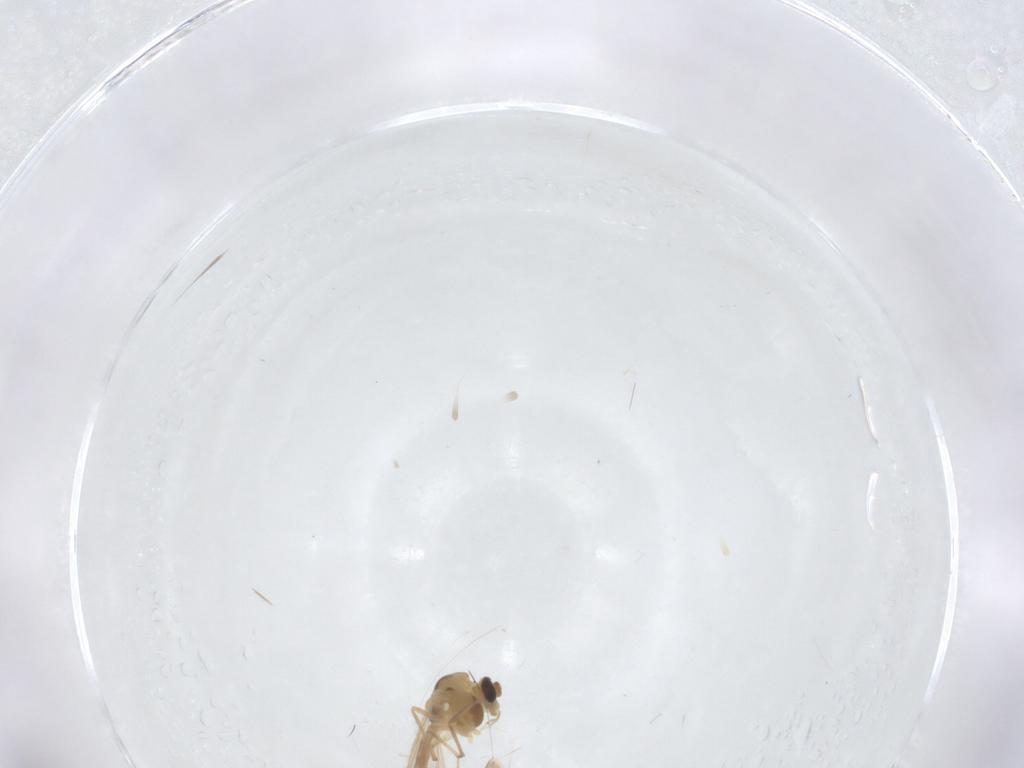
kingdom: Animalia
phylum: Arthropoda
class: Insecta
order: Diptera
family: Chironomidae
